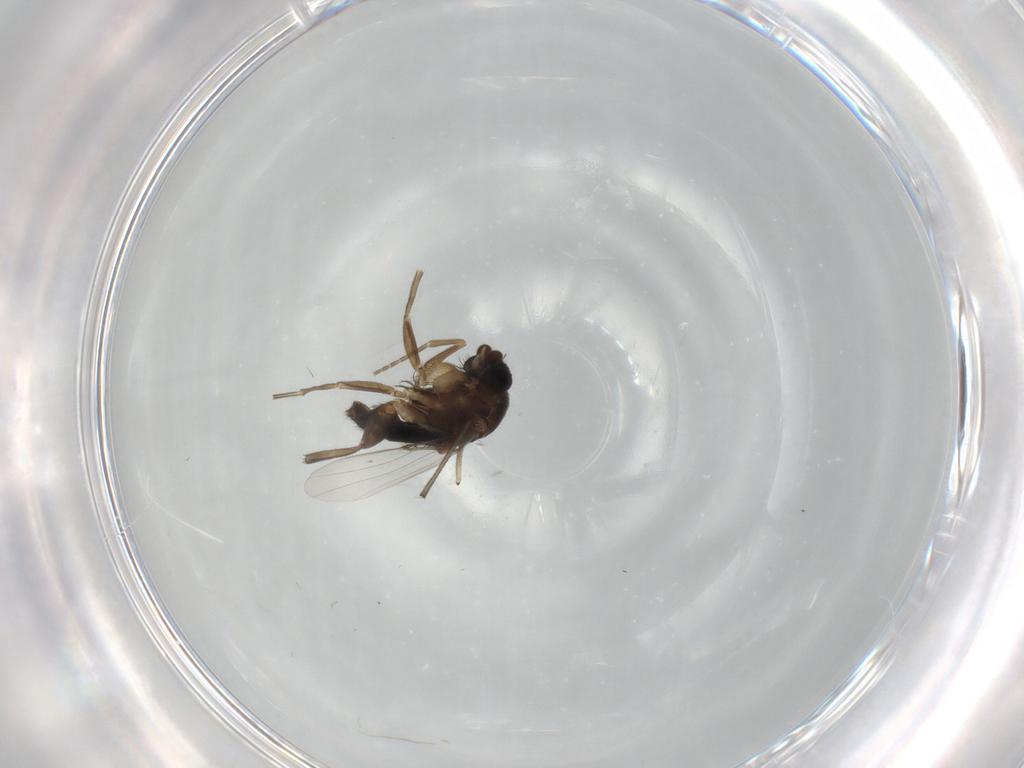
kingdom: Animalia
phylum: Arthropoda
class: Insecta
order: Diptera
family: Phoridae
